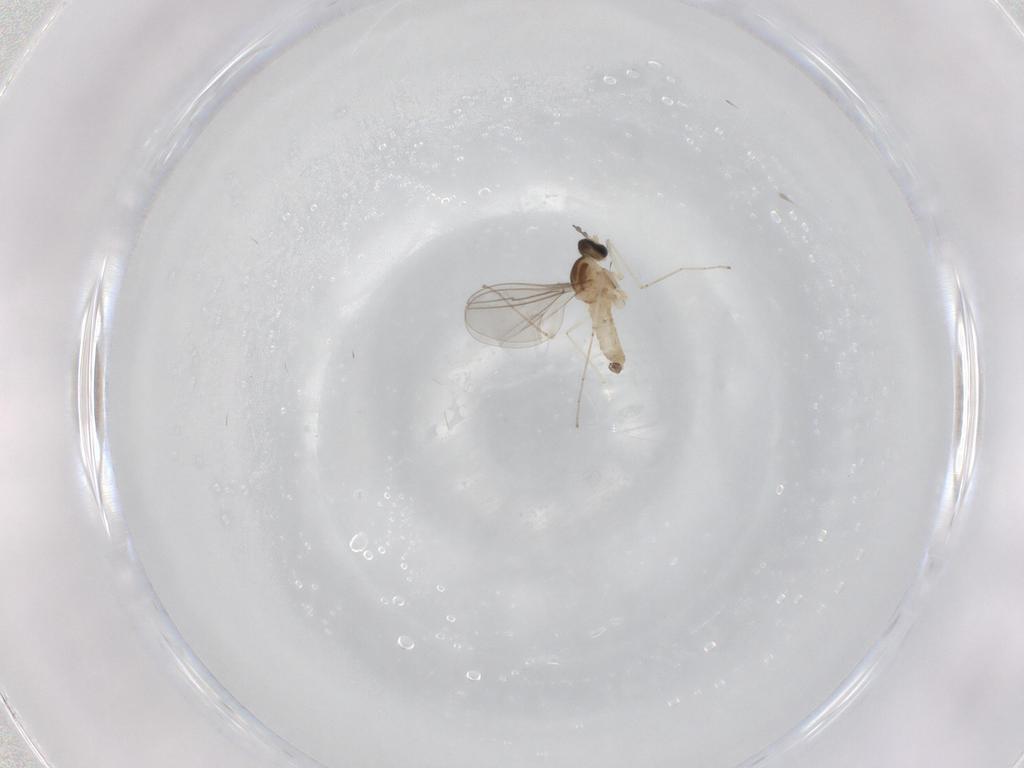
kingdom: Animalia
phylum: Arthropoda
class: Insecta
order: Diptera
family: Cecidomyiidae
